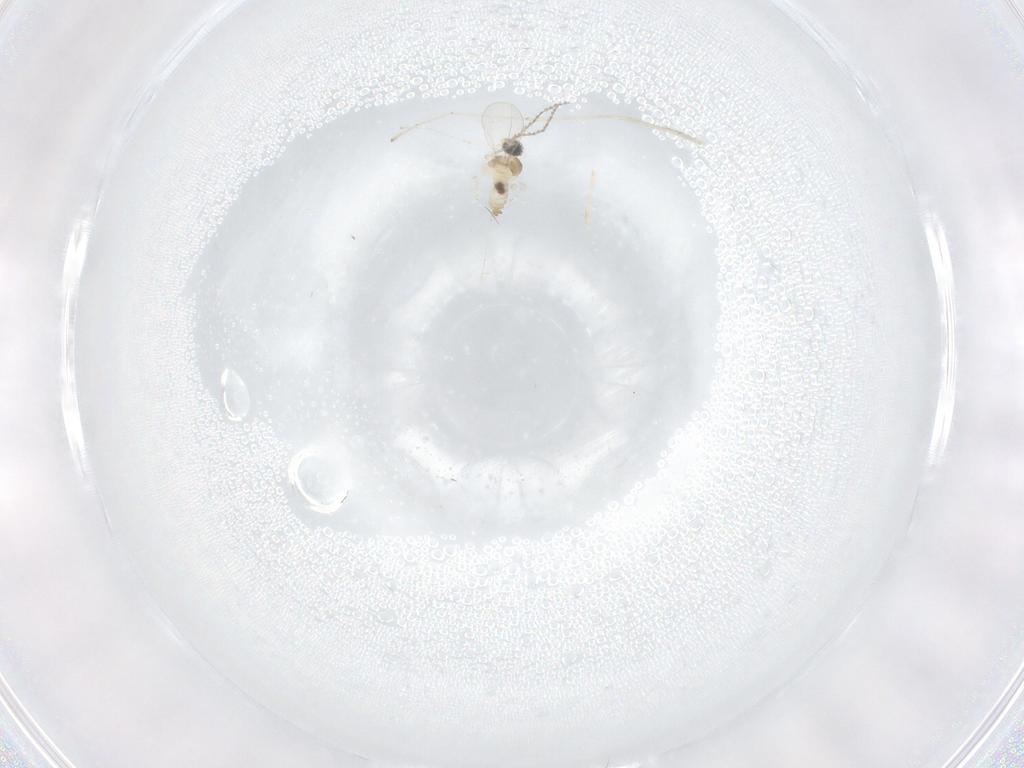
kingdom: Animalia
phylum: Arthropoda
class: Insecta
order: Diptera
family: Cecidomyiidae
